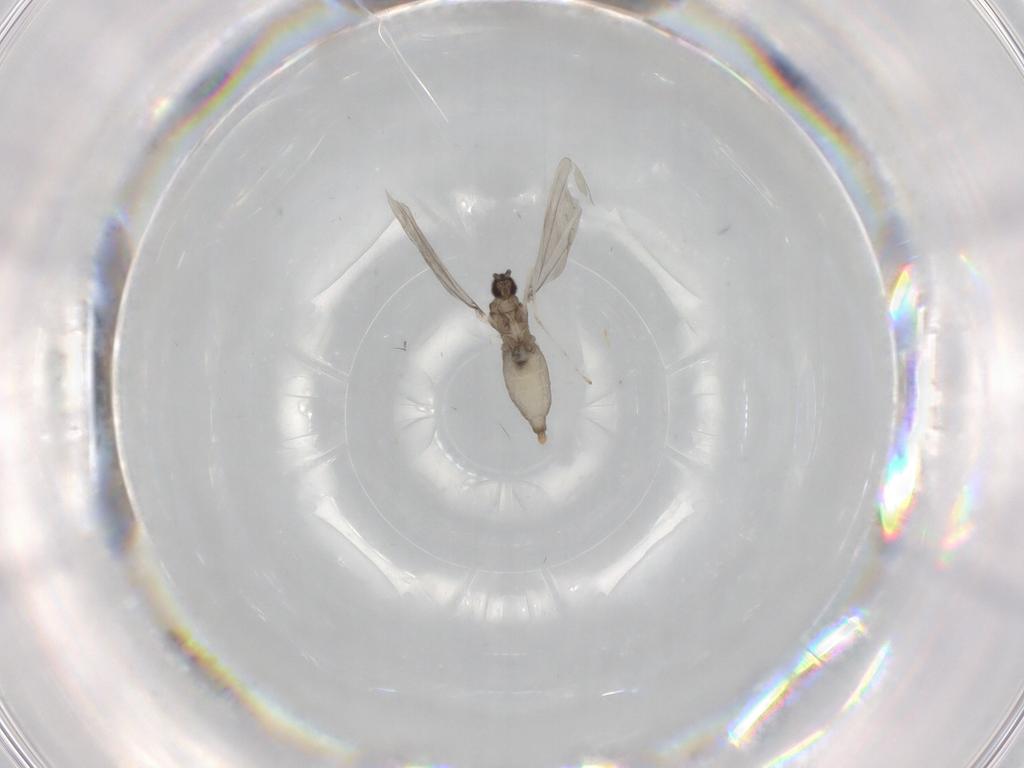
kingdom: Animalia
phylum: Arthropoda
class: Insecta
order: Diptera
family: Cecidomyiidae
